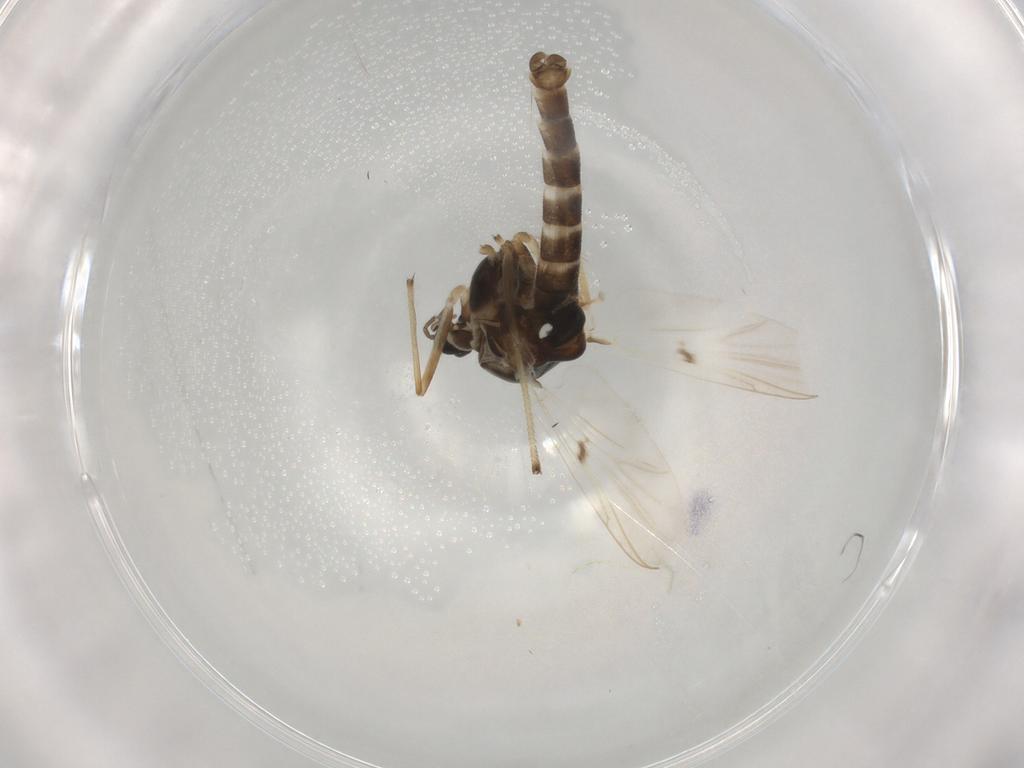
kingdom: Animalia
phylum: Arthropoda
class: Insecta
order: Diptera
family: Chironomidae
